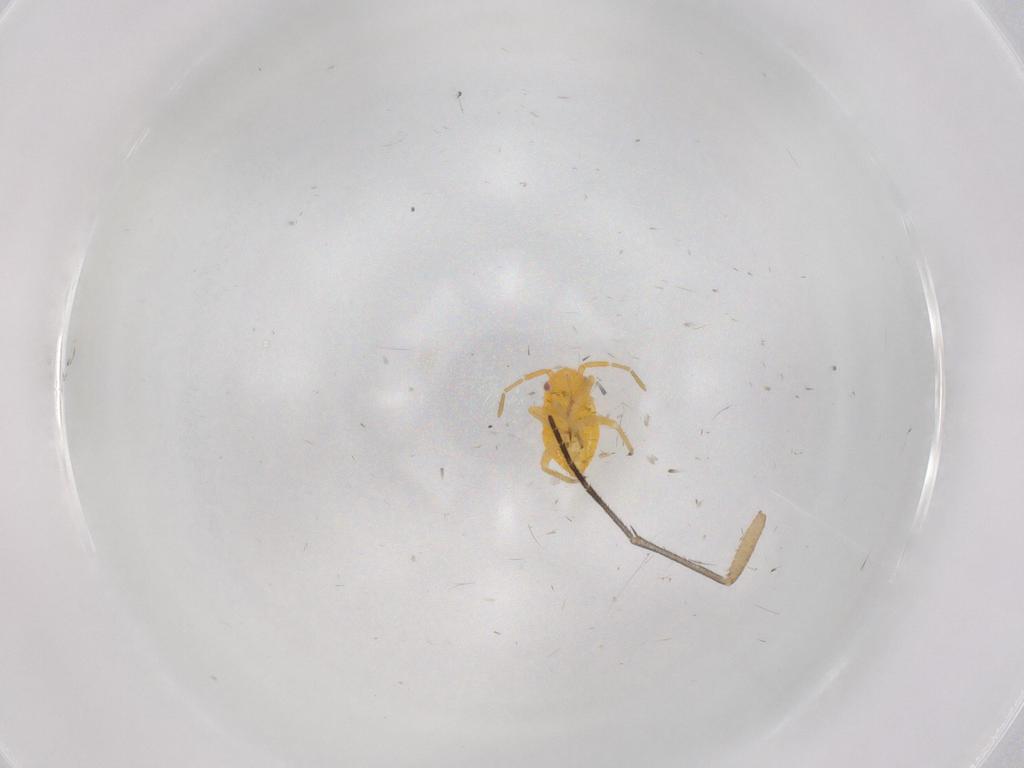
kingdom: Animalia
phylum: Arthropoda
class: Insecta
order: Hemiptera
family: Miridae
